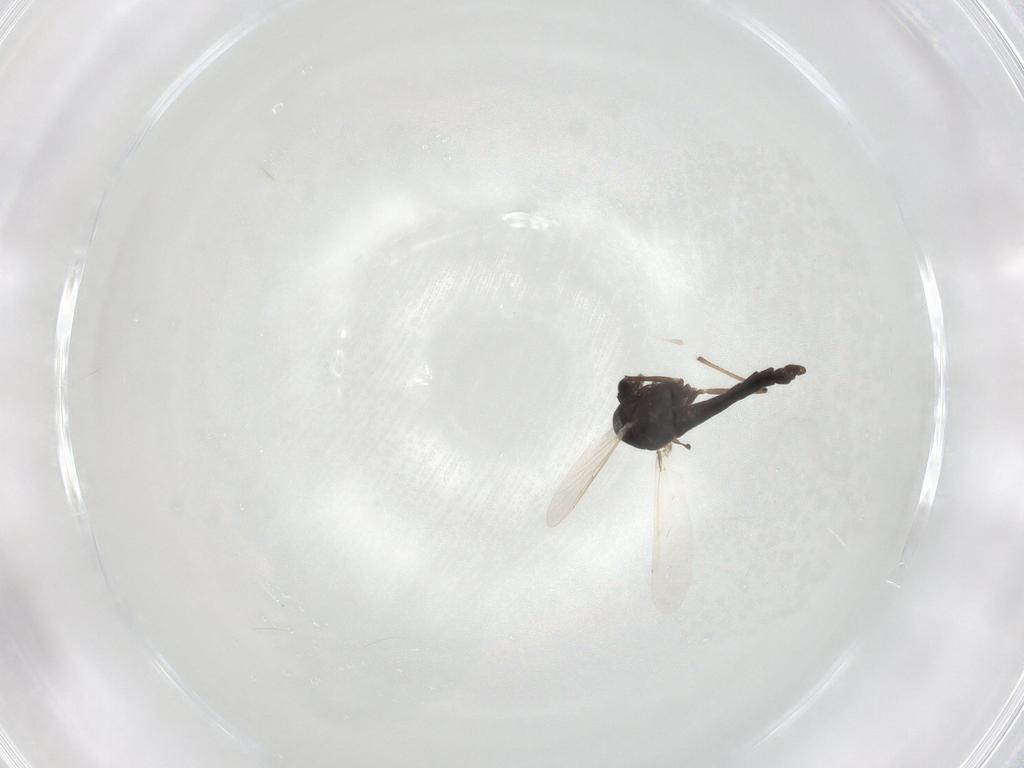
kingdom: Animalia
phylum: Arthropoda
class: Insecta
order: Diptera
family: Chironomidae
